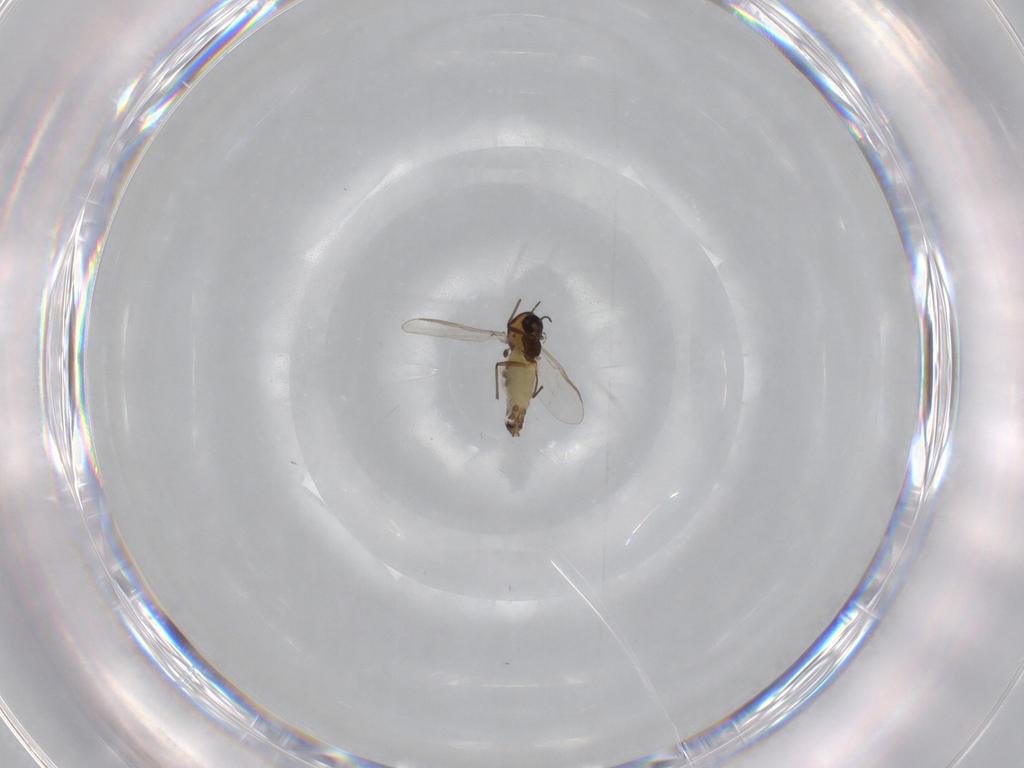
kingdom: Animalia
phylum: Arthropoda
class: Insecta
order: Diptera
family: Chironomidae
